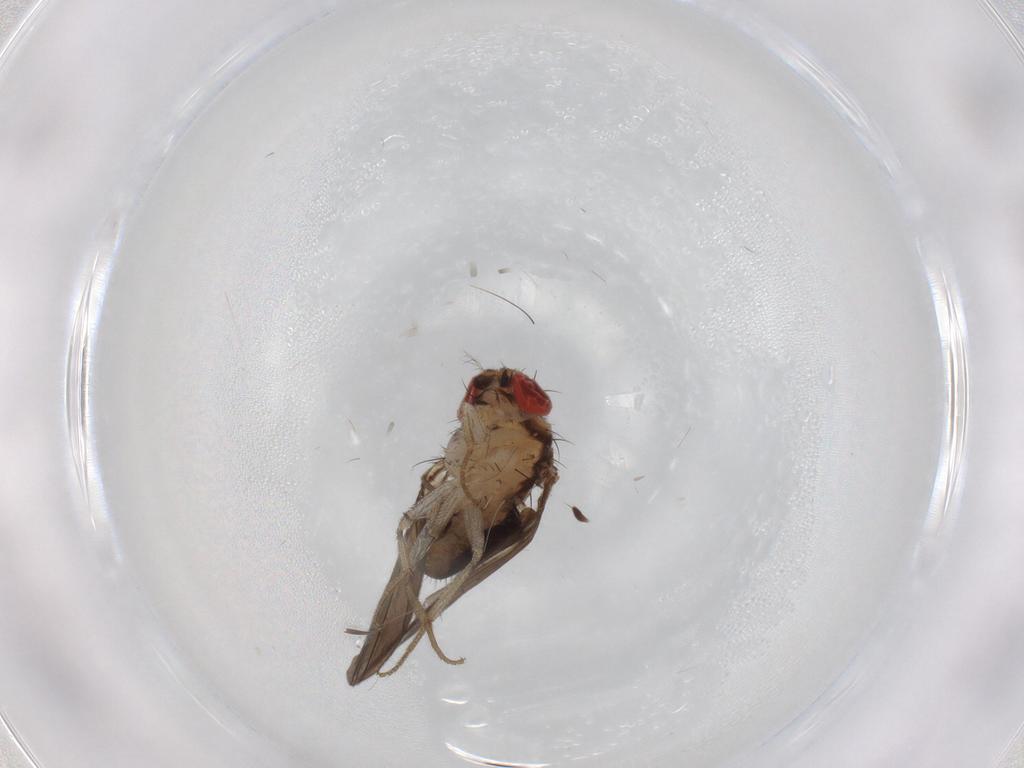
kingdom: Animalia
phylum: Arthropoda
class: Insecta
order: Diptera
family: Drosophilidae
